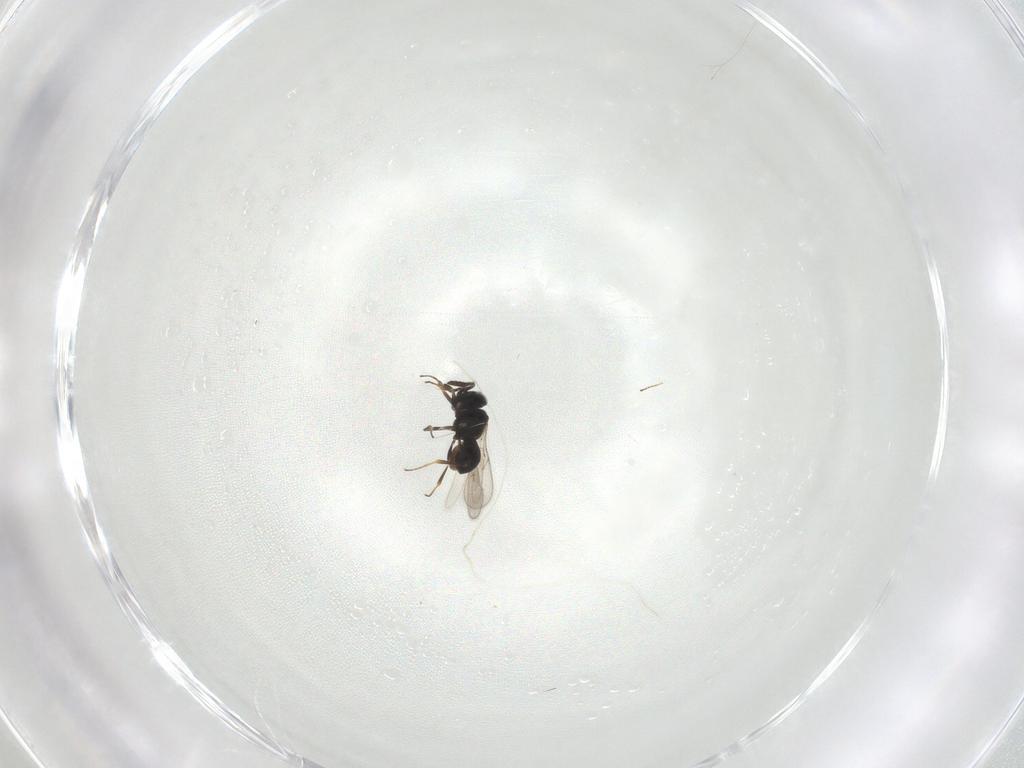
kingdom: Animalia
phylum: Arthropoda
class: Insecta
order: Hymenoptera
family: Scelionidae
